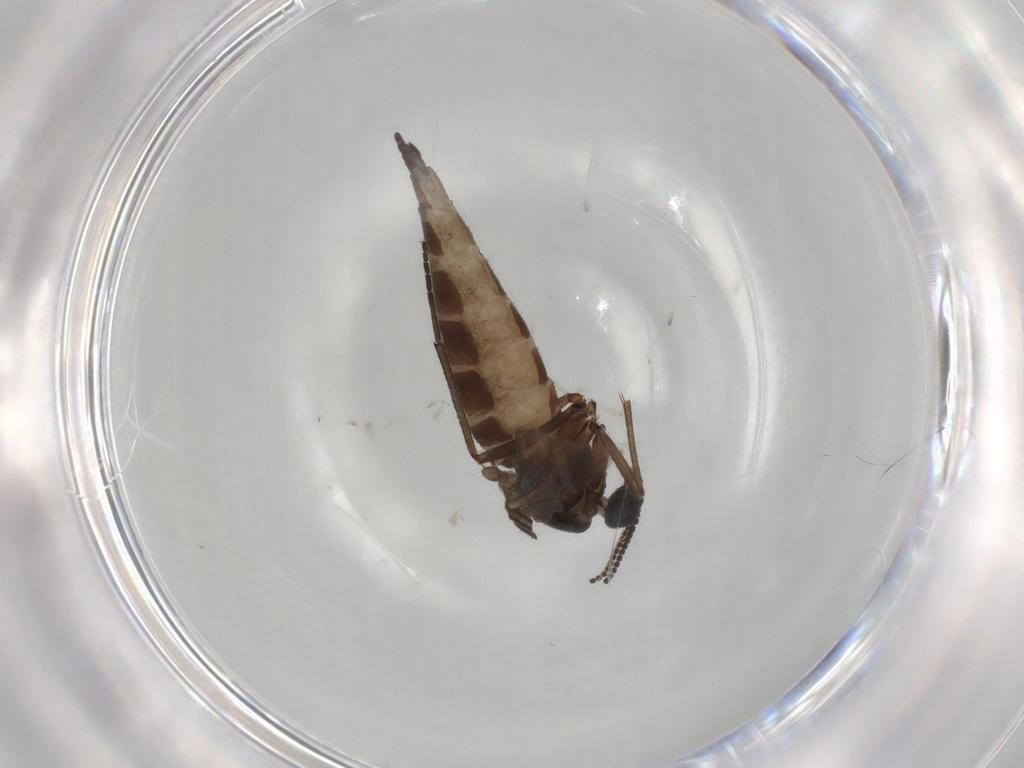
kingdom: Animalia
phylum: Arthropoda
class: Insecta
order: Diptera
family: Sciaridae
